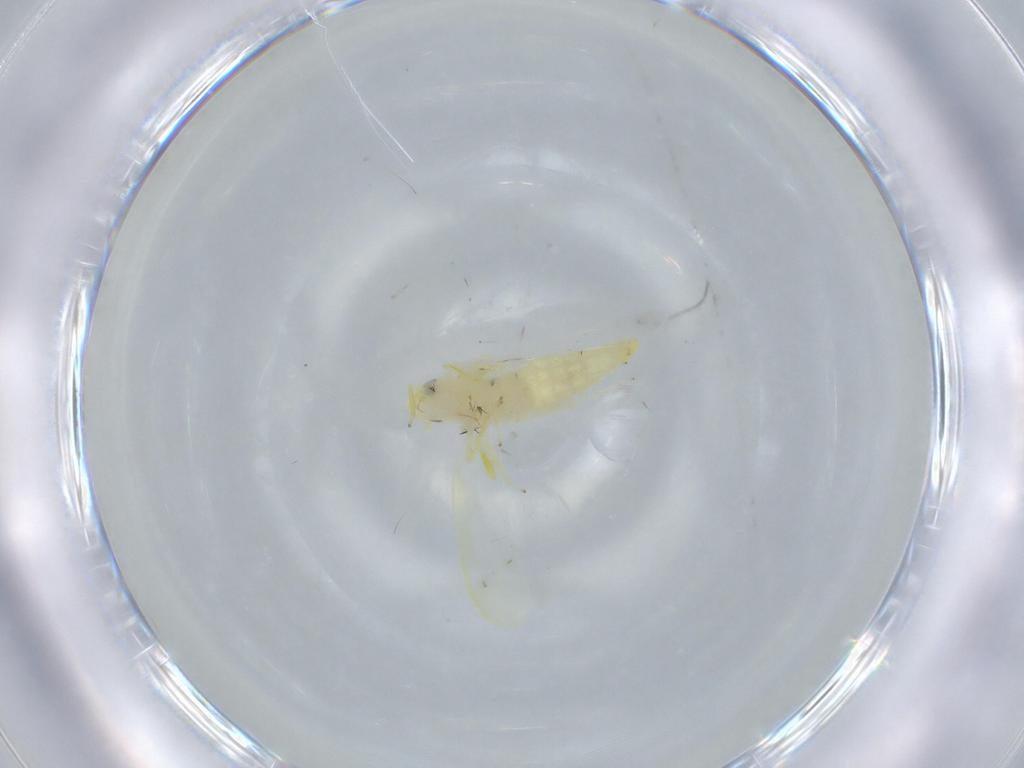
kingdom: Animalia
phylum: Arthropoda
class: Insecta
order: Hemiptera
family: Cicadellidae
